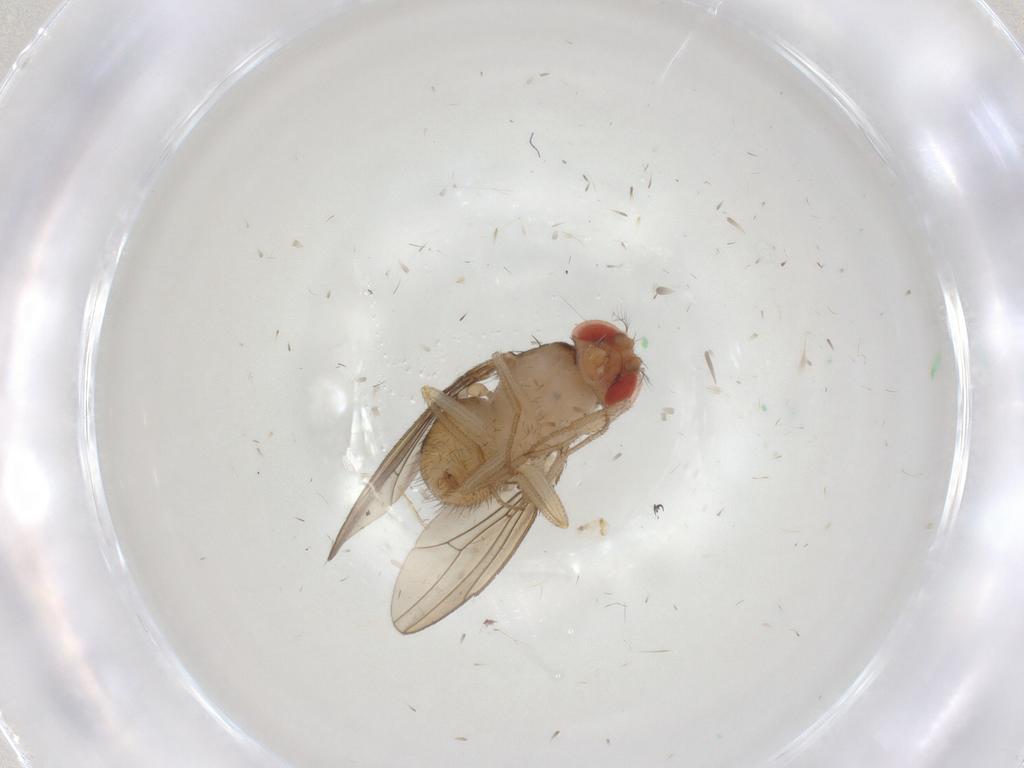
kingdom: Animalia
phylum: Arthropoda
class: Insecta
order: Diptera
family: Drosophilidae
